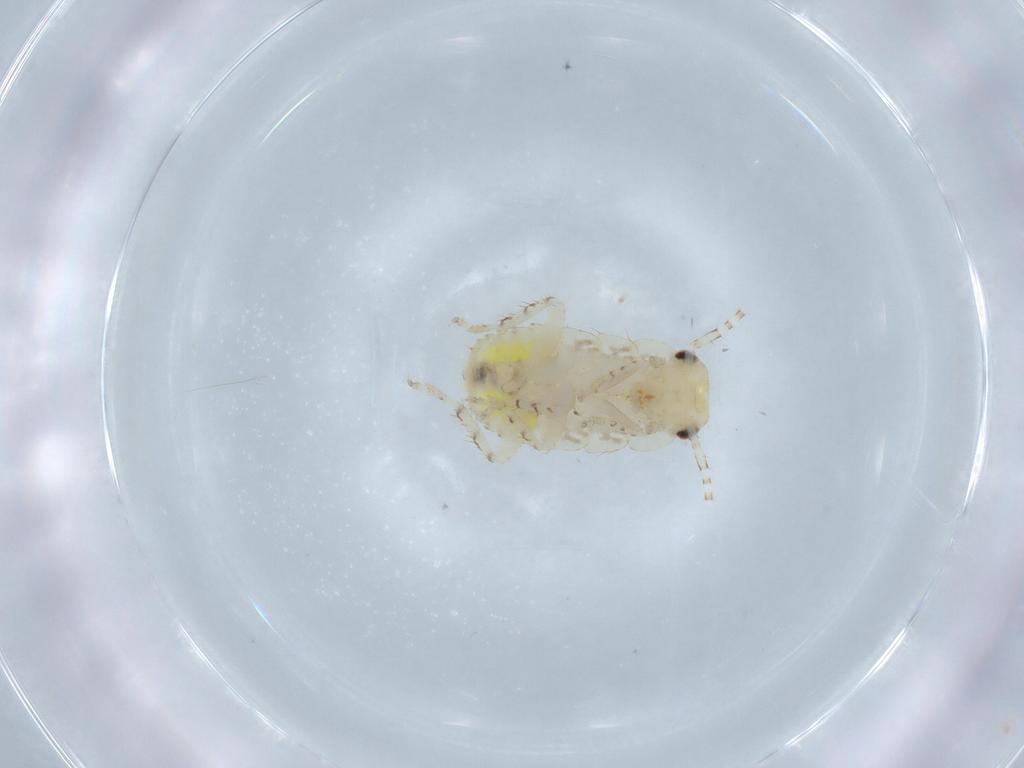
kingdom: Animalia
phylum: Arthropoda
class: Insecta
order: Blattodea
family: Ectobiidae
